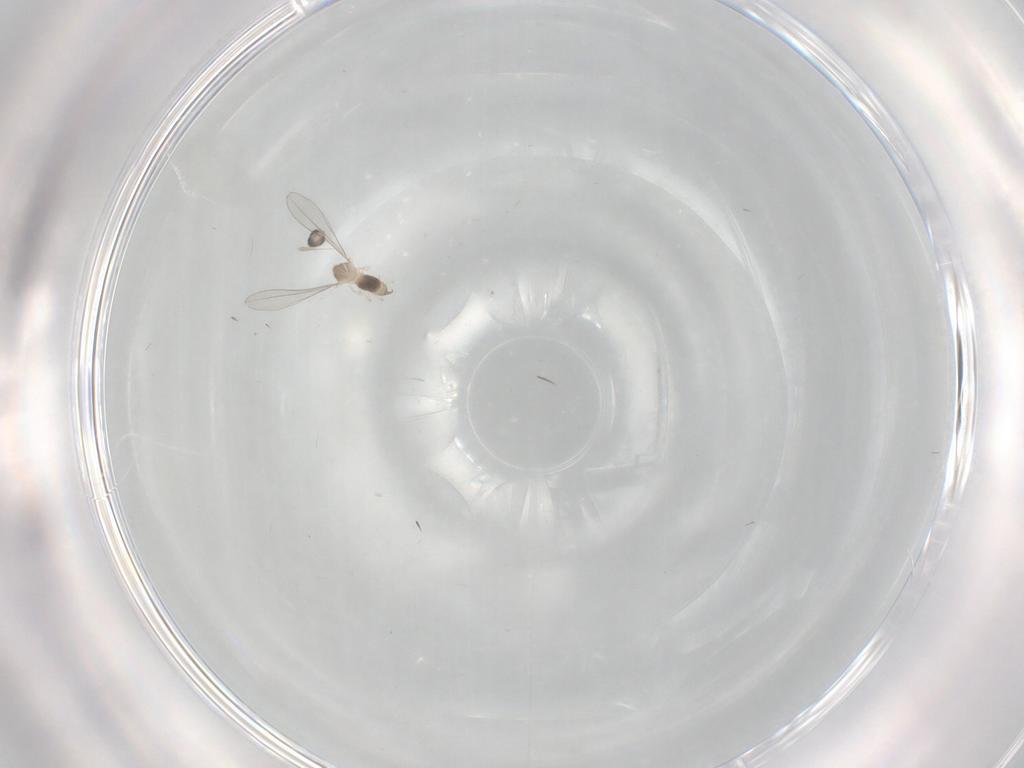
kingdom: Animalia
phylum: Arthropoda
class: Insecta
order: Diptera
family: Cecidomyiidae
